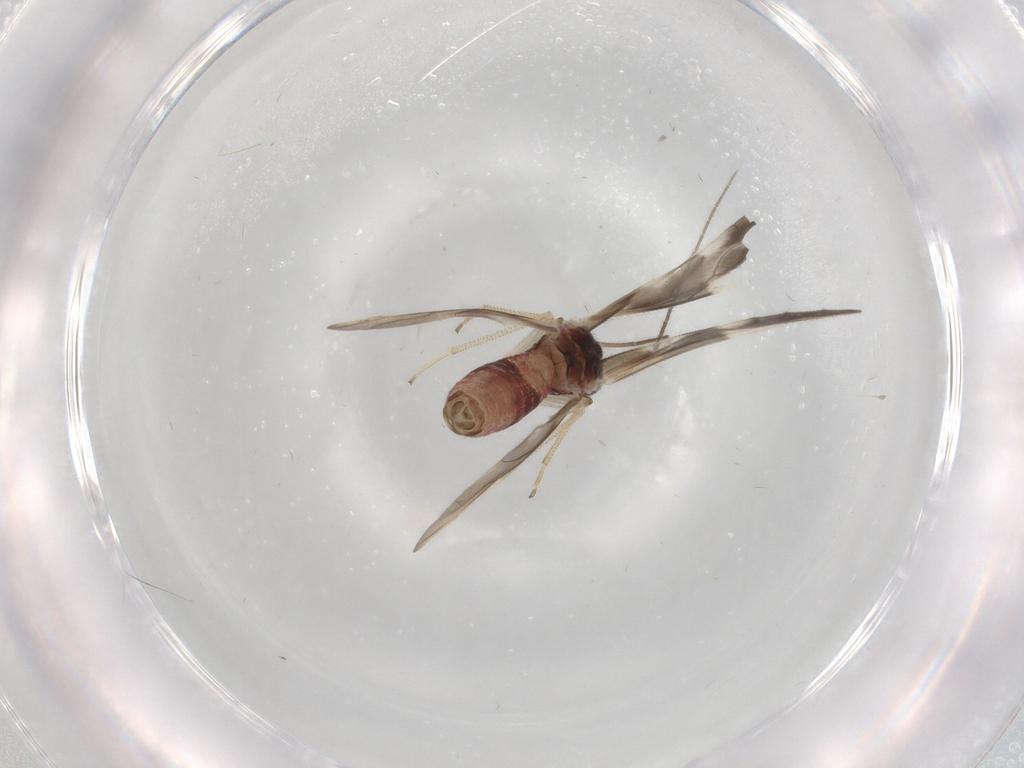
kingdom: Animalia
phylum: Arthropoda
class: Insecta
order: Psocodea
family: Caeciliusidae
